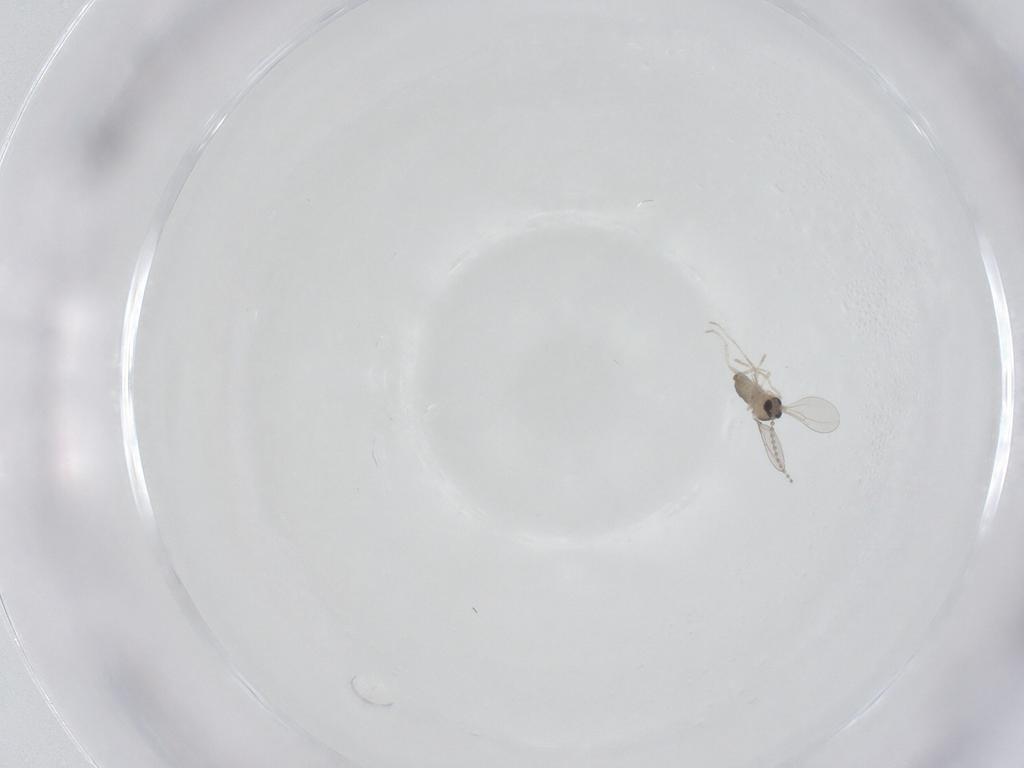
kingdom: Animalia
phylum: Arthropoda
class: Insecta
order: Diptera
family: Cecidomyiidae
